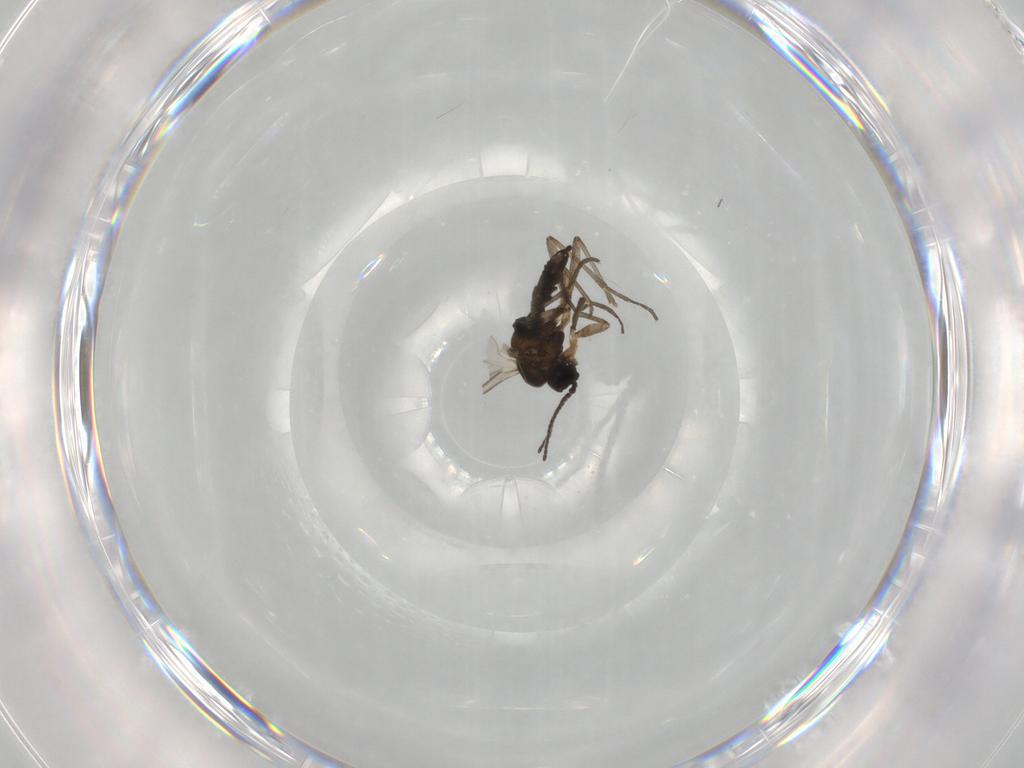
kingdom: Animalia
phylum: Arthropoda
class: Insecta
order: Diptera
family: Sciaridae
